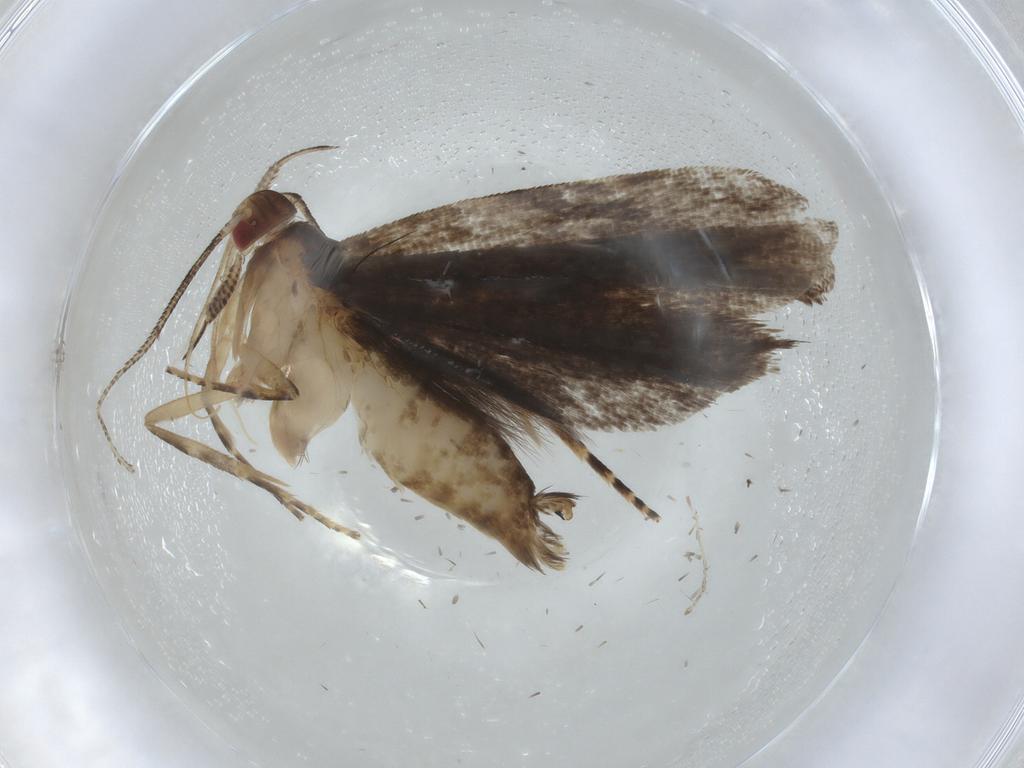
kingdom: Animalia
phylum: Arthropoda
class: Insecta
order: Lepidoptera
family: Gelechiidae
